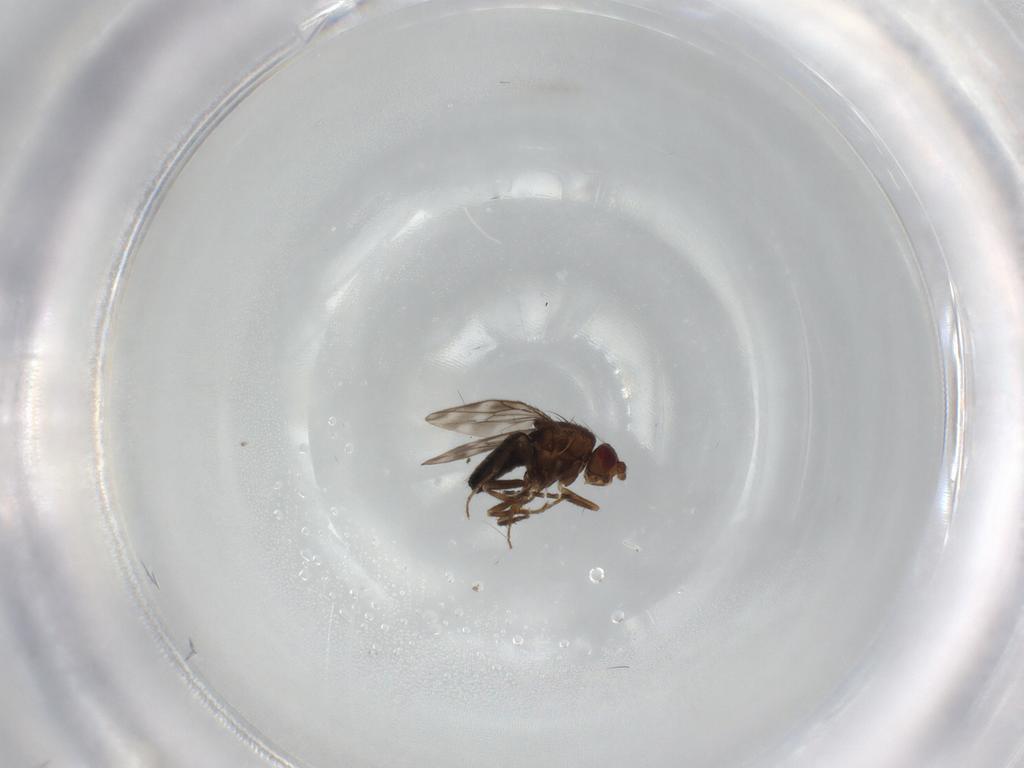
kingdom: Animalia
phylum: Arthropoda
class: Insecta
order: Diptera
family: Sphaeroceridae
